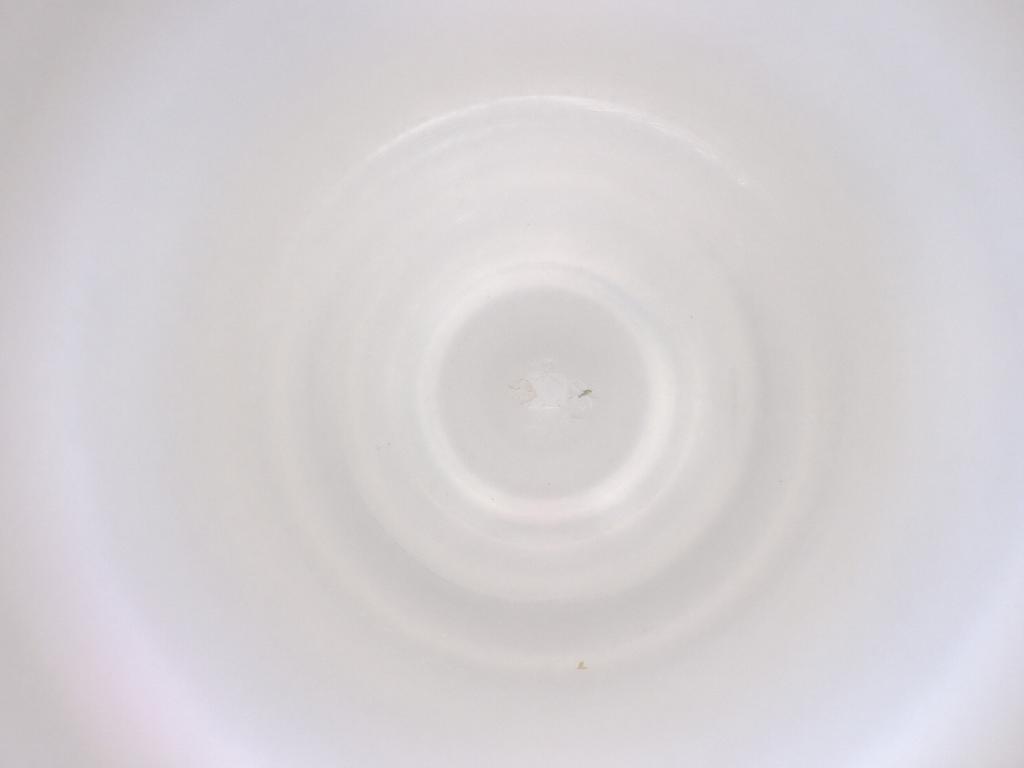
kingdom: Animalia
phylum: Arthropoda
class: Insecta
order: Diptera
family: Cecidomyiidae
